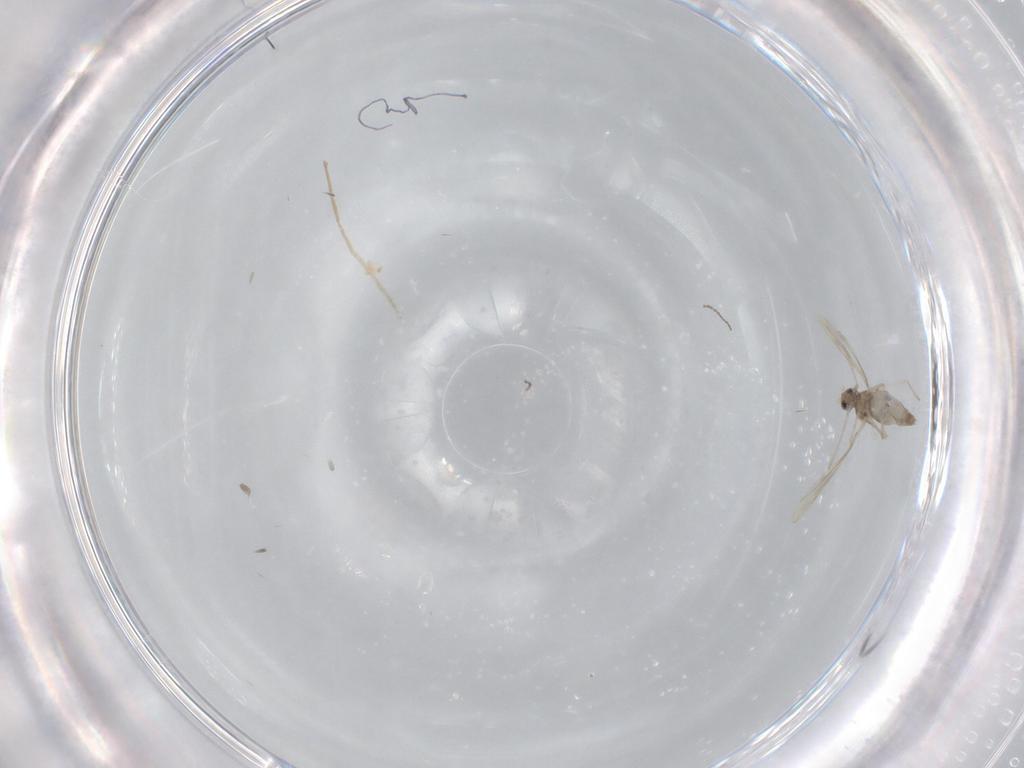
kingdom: Animalia
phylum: Arthropoda
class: Insecta
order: Diptera
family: Cecidomyiidae
